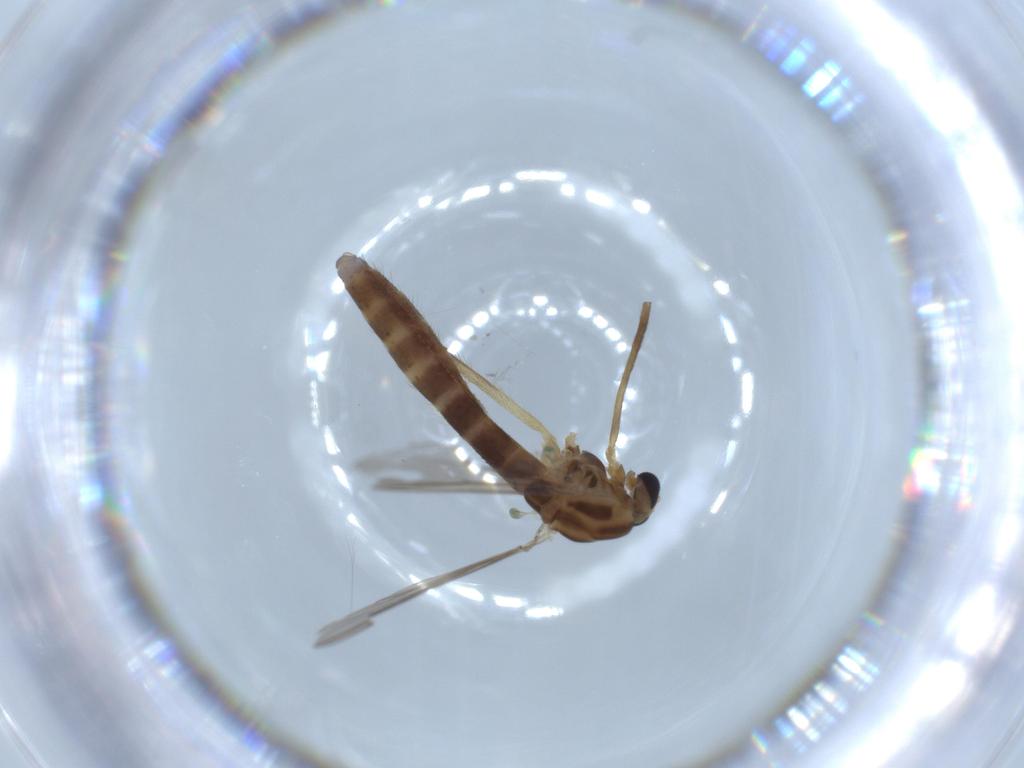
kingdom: Animalia
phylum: Arthropoda
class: Insecta
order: Diptera
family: Chironomidae
